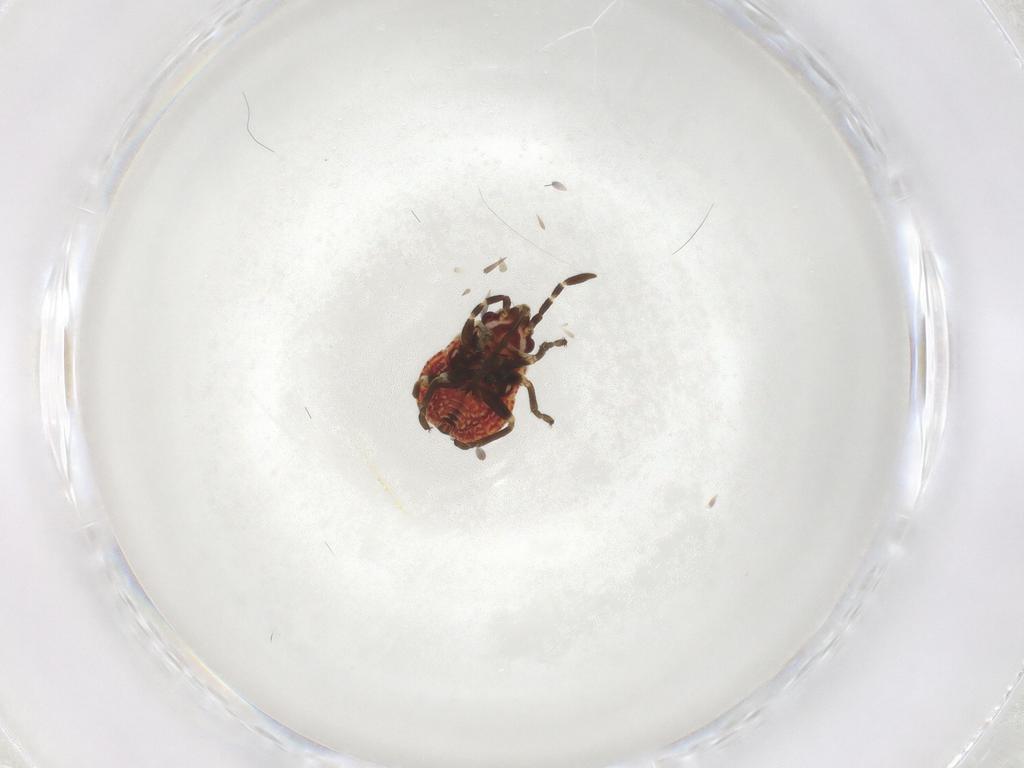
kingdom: Animalia
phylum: Arthropoda
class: Insecta
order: Hemiptera
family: Lygaeidae
